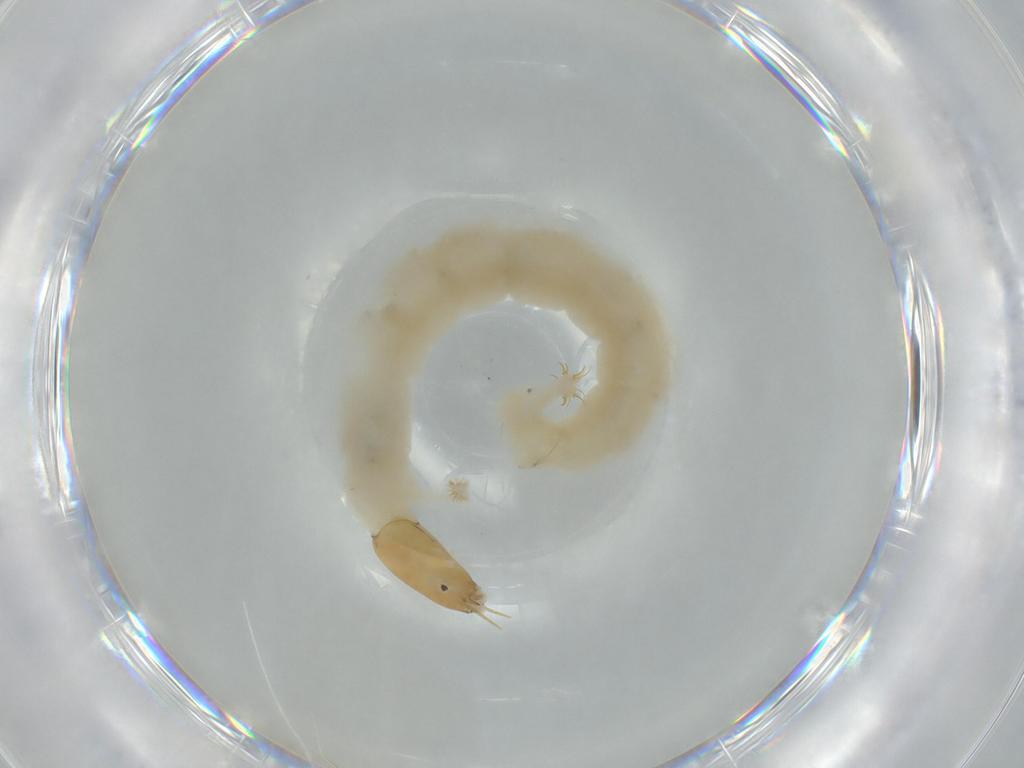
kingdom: Animalia
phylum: Arthropoda
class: Insecta
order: Diptera
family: Chironomidae
